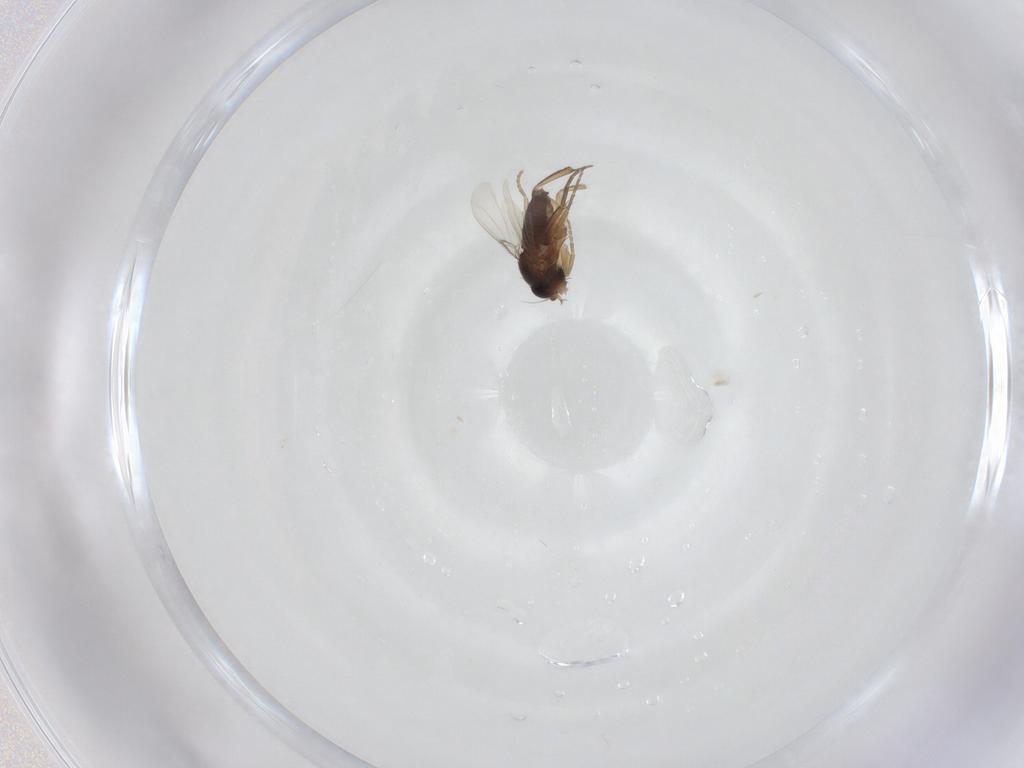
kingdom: Animalia
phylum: Arthropoda
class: Insecta
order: Diptera
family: Phoridae
